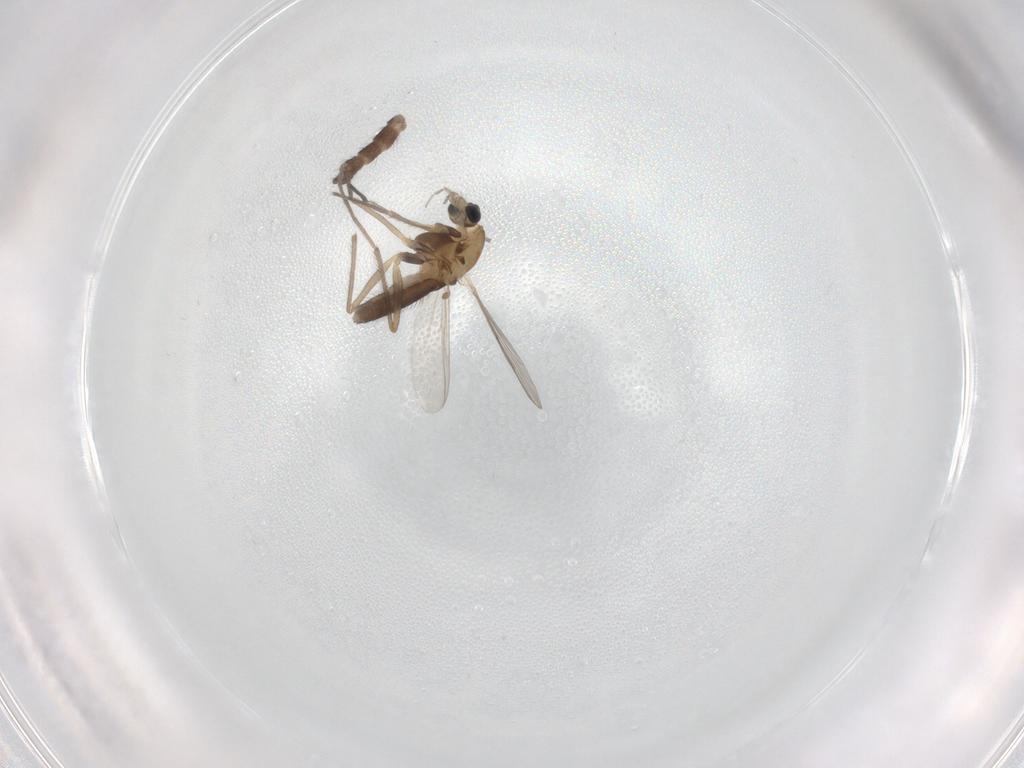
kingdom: Animalia
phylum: Arthropoda
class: Insecta
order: Diptera
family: Chironomidae
